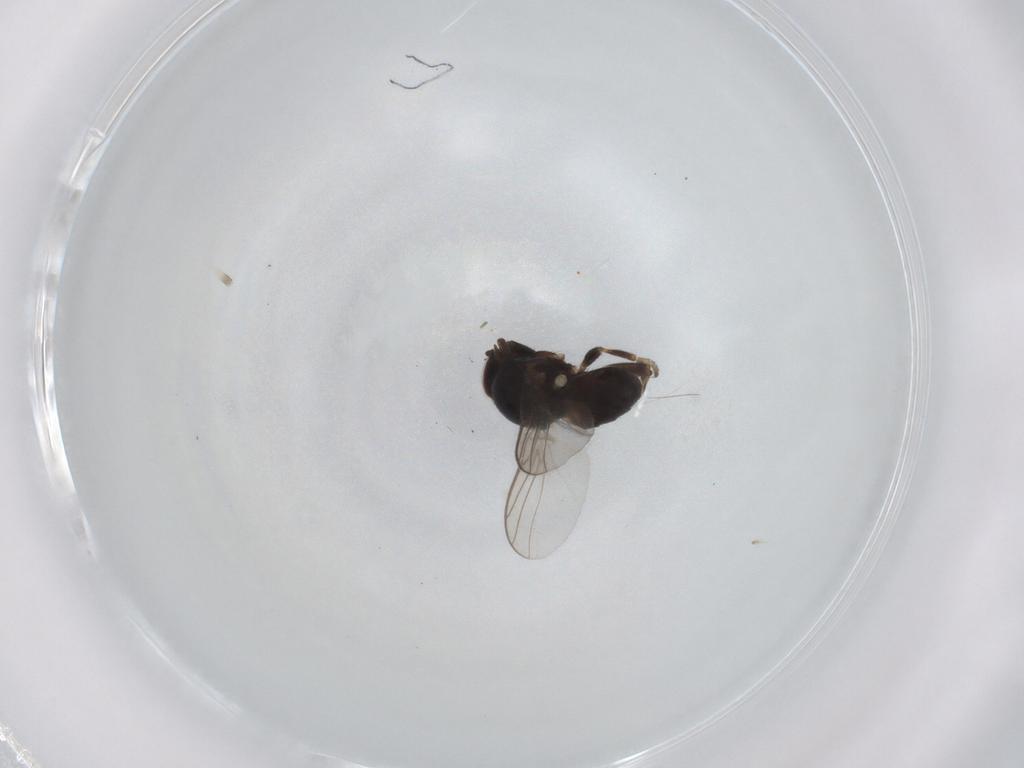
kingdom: Animalia
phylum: Arthropoda
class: Insecta
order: Diptera
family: Chloropidae
